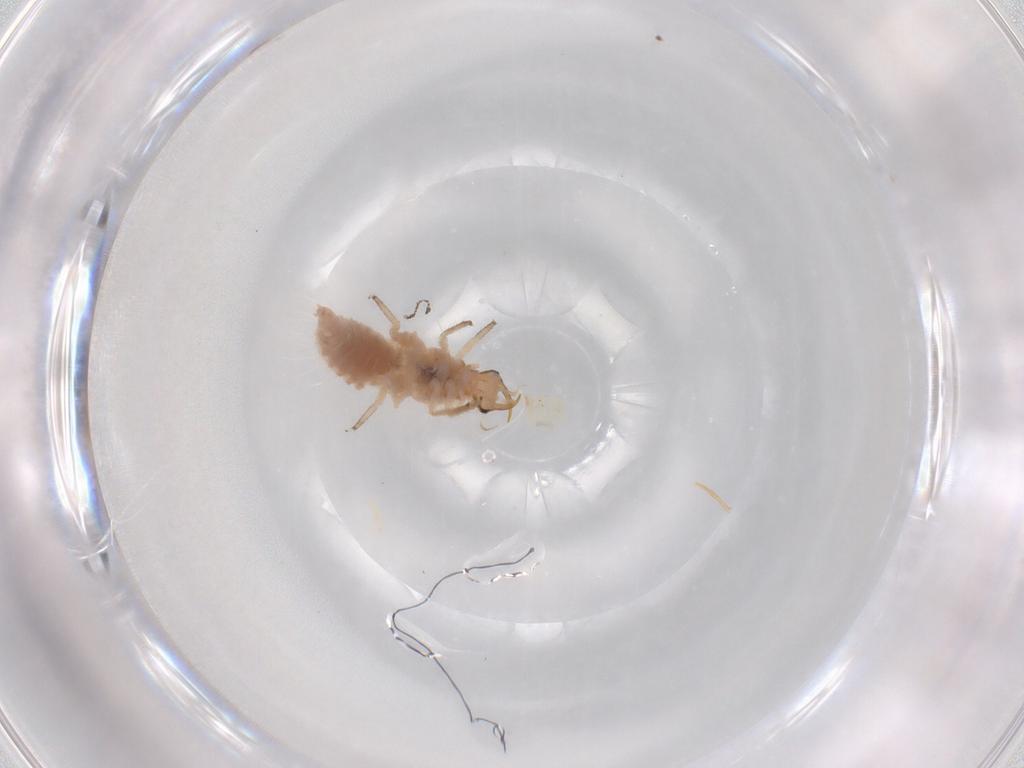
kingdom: Animalia
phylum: Arthropoda
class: Insecta
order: Neuroptera
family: Chrysopidae
